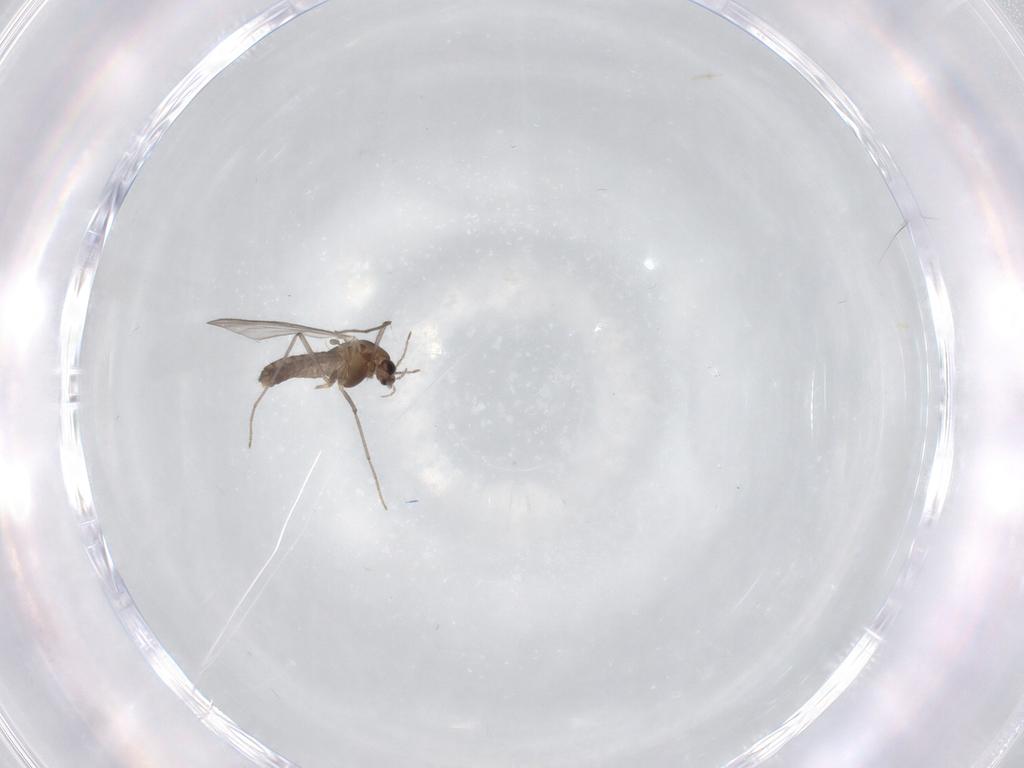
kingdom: Animalia
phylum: Arthropoda
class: Insecta
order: Diptera
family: Chironomidae
